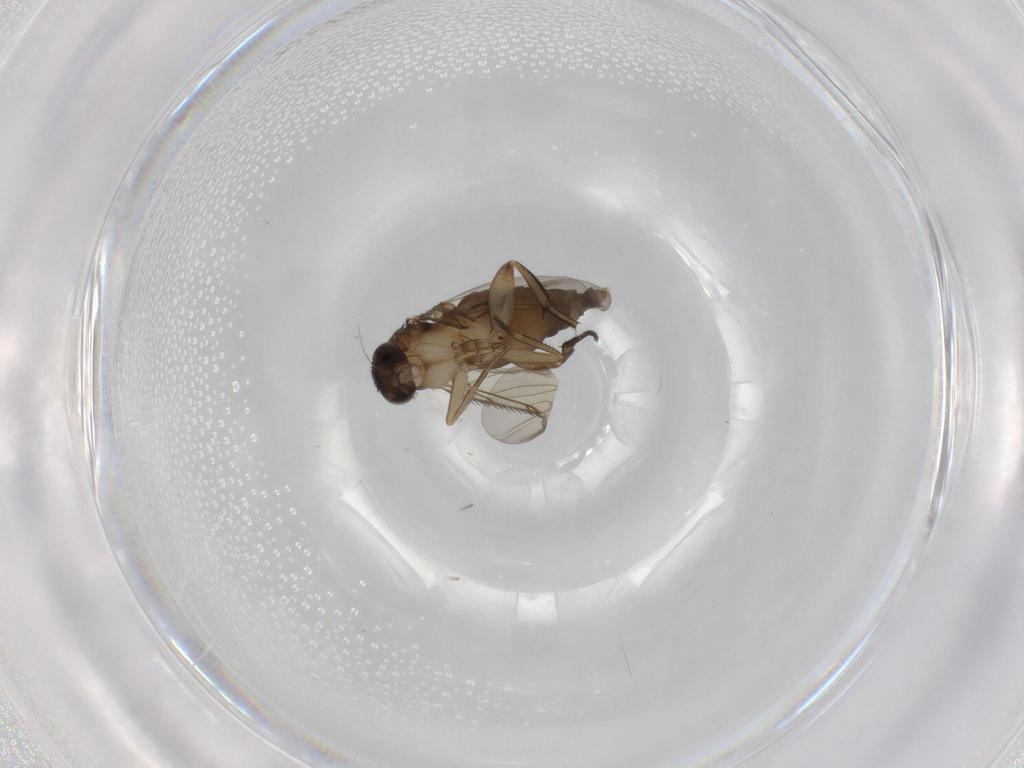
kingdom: Animalia
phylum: Arthropoda
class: Insecta
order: Diptera
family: Phoridae
